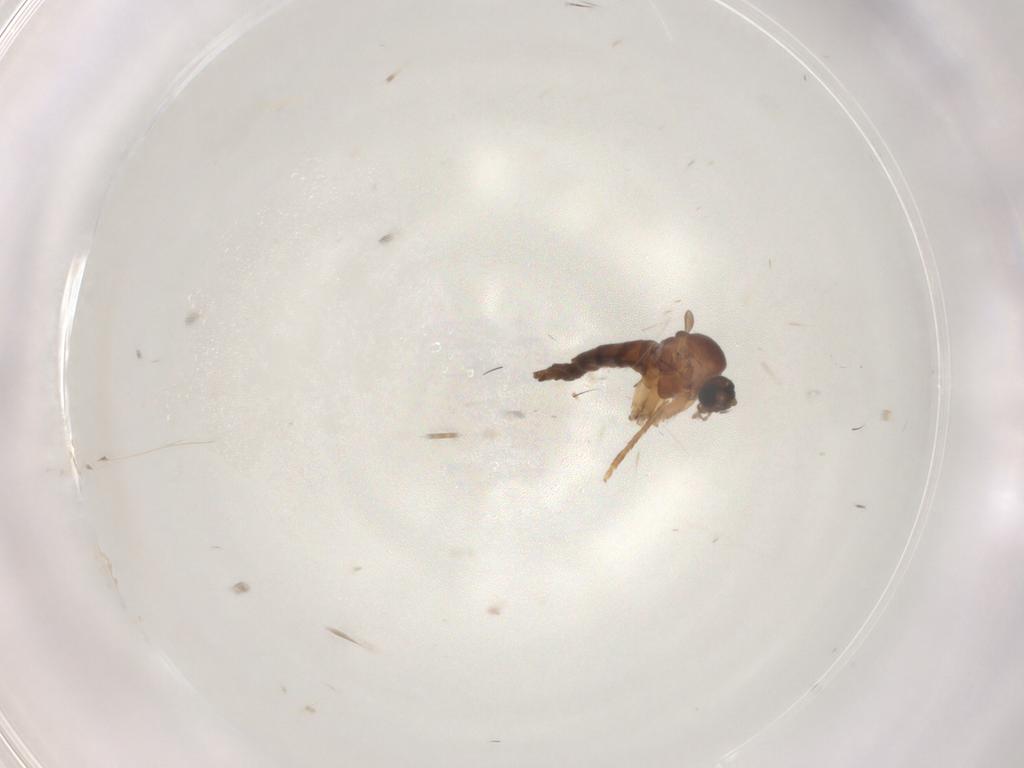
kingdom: Animalia
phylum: Arthropoda
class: Insecta
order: Diptera
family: Sciaridae
